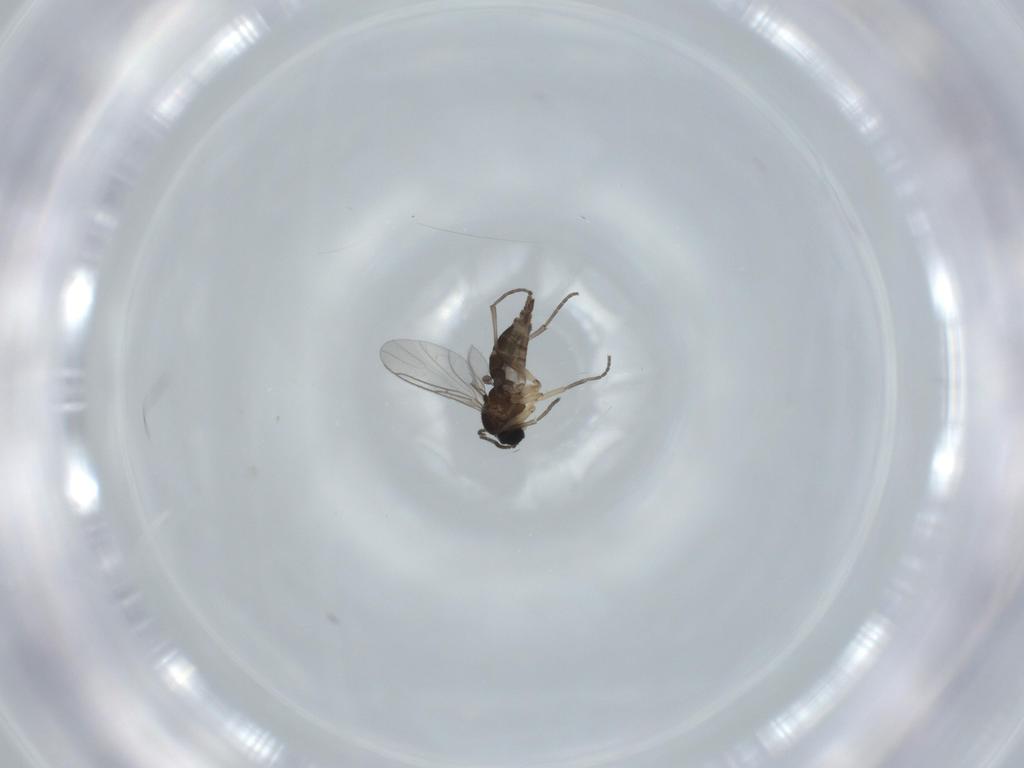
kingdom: Animalia
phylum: Arthropoda
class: Insecta
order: Diptera
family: Sciaridae
